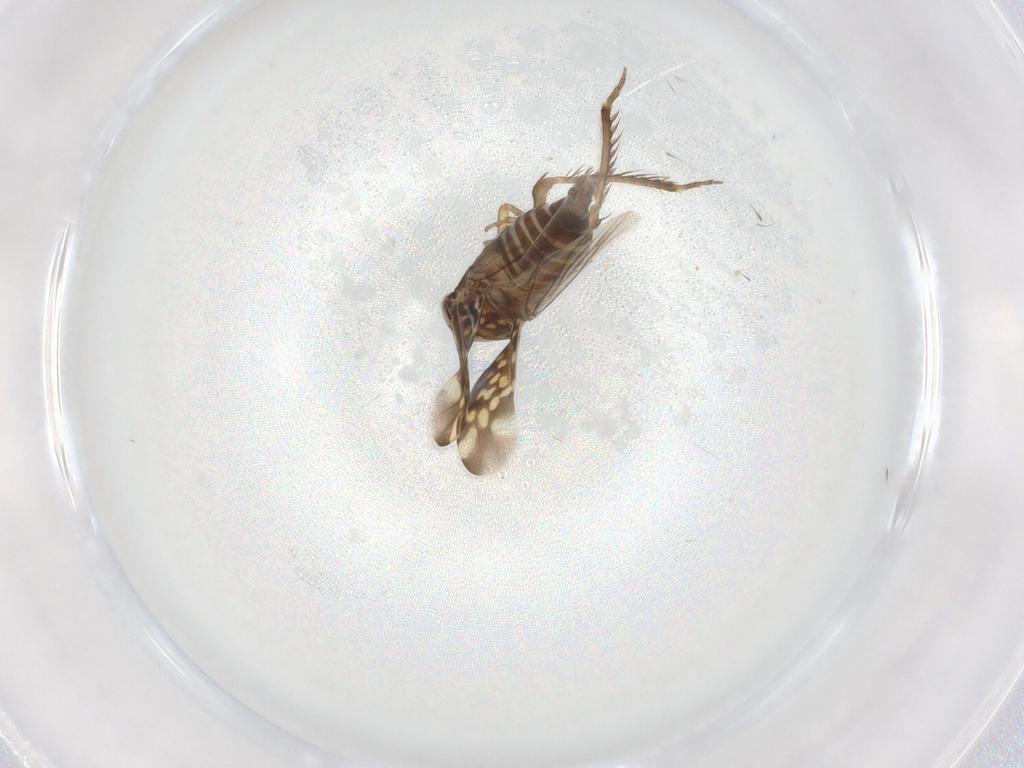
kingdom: Animalia
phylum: Arthropoda
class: Insecta
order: Hemiptera
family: Cicadellidae
